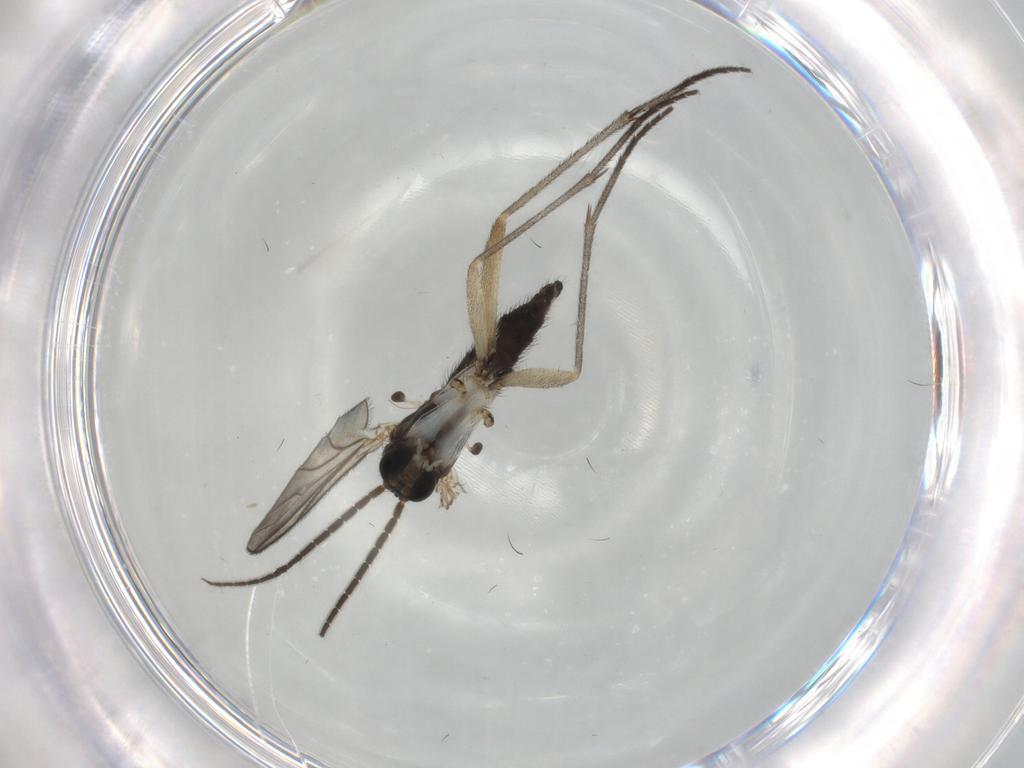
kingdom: Animalia
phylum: Arthropoda
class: Insecta
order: Diptera
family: Sciaridae
